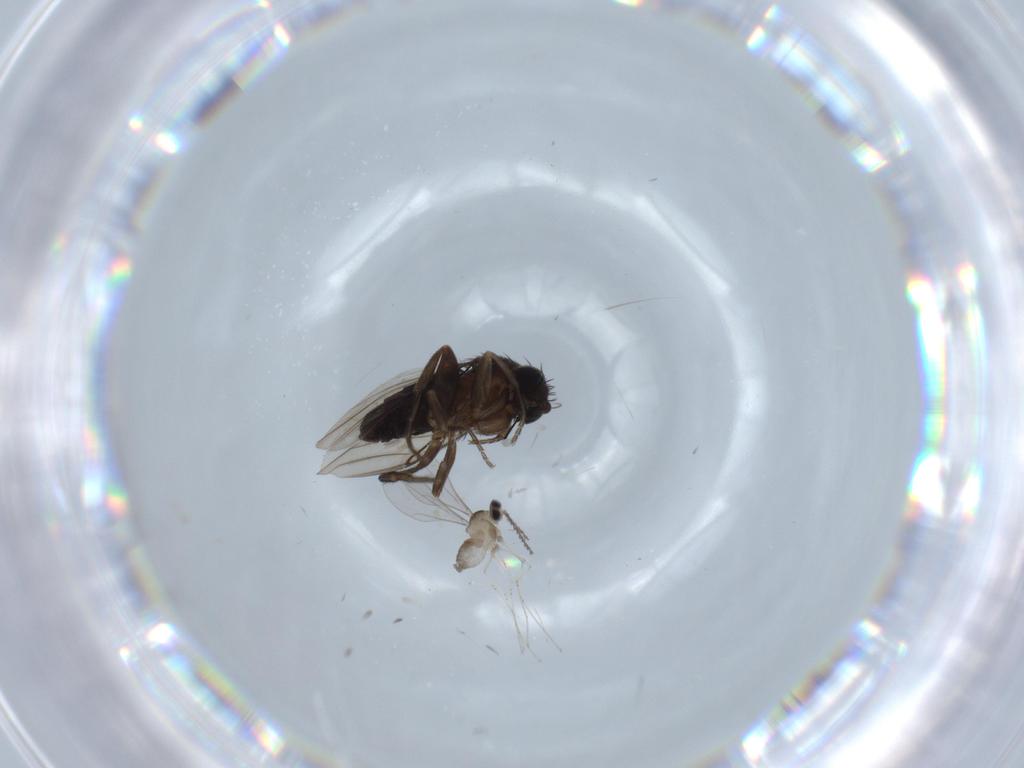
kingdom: Animalia
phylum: Arthropoda
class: Insecta
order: Diptera
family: Phoridae
